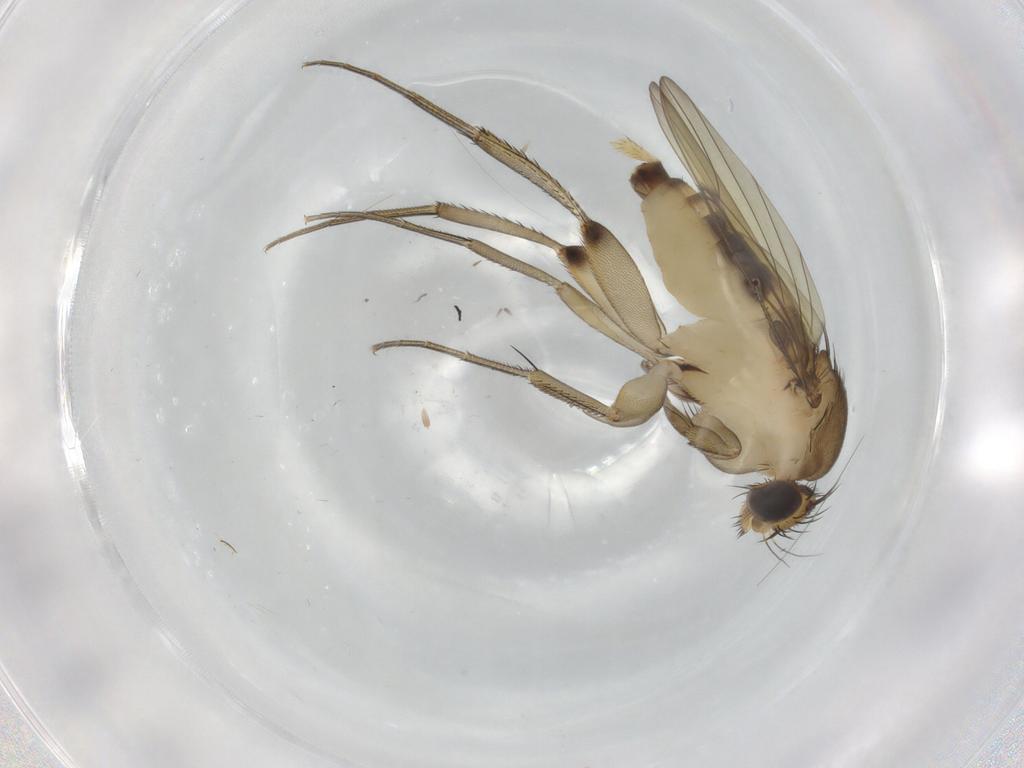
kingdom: Animalia
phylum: Arthropoda
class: Insecta
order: Diptera
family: Phoridae
